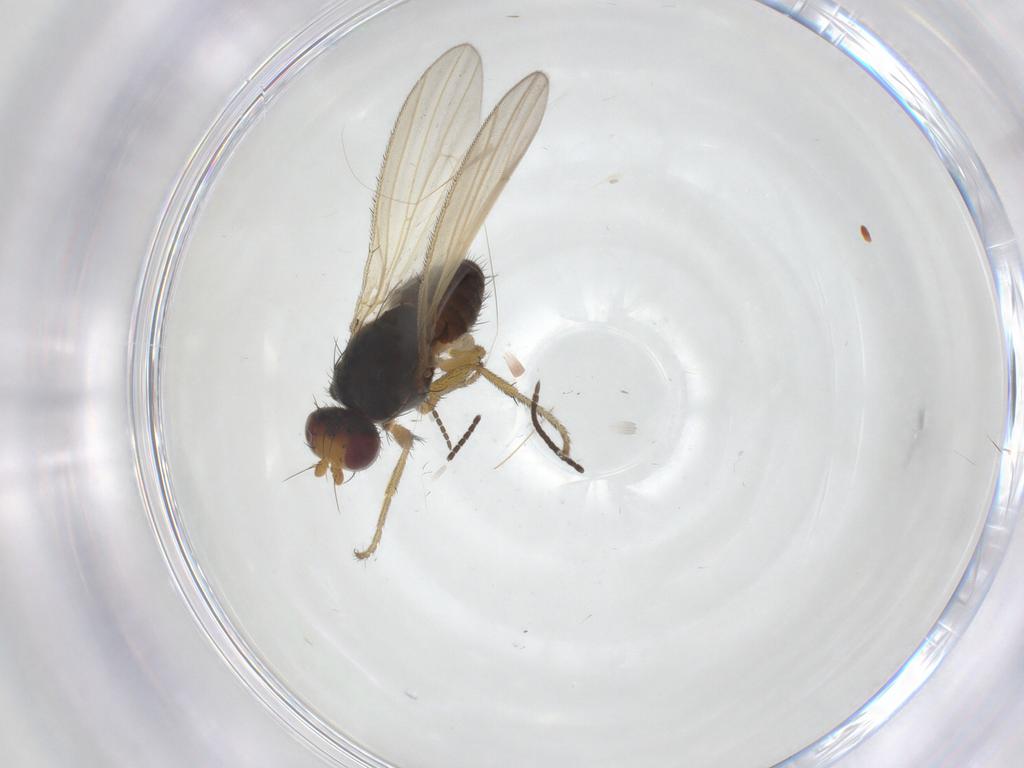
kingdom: Animalia
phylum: Arthropoda
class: Insecta
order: Diptera
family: Heleomyzidae
